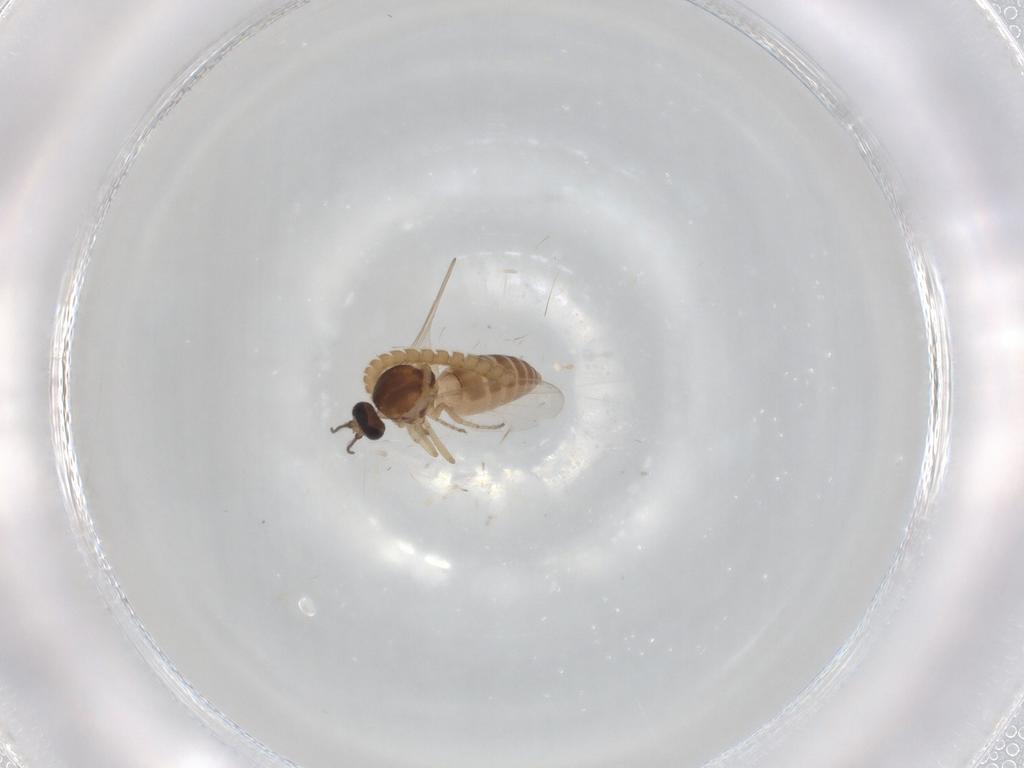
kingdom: Animalia
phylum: Arthropoda
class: Insecta
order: Diptera
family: Ceratopogonidae
